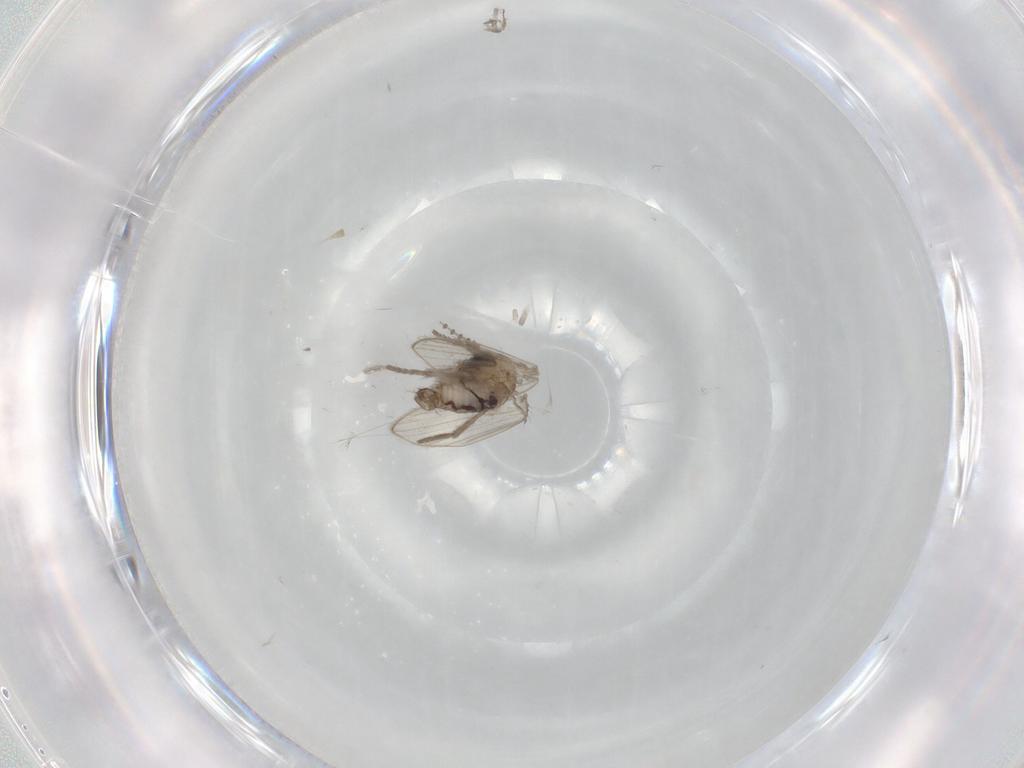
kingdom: Animalia
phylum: Arthropoda
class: Insecta
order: Diptera
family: Psychodidae
